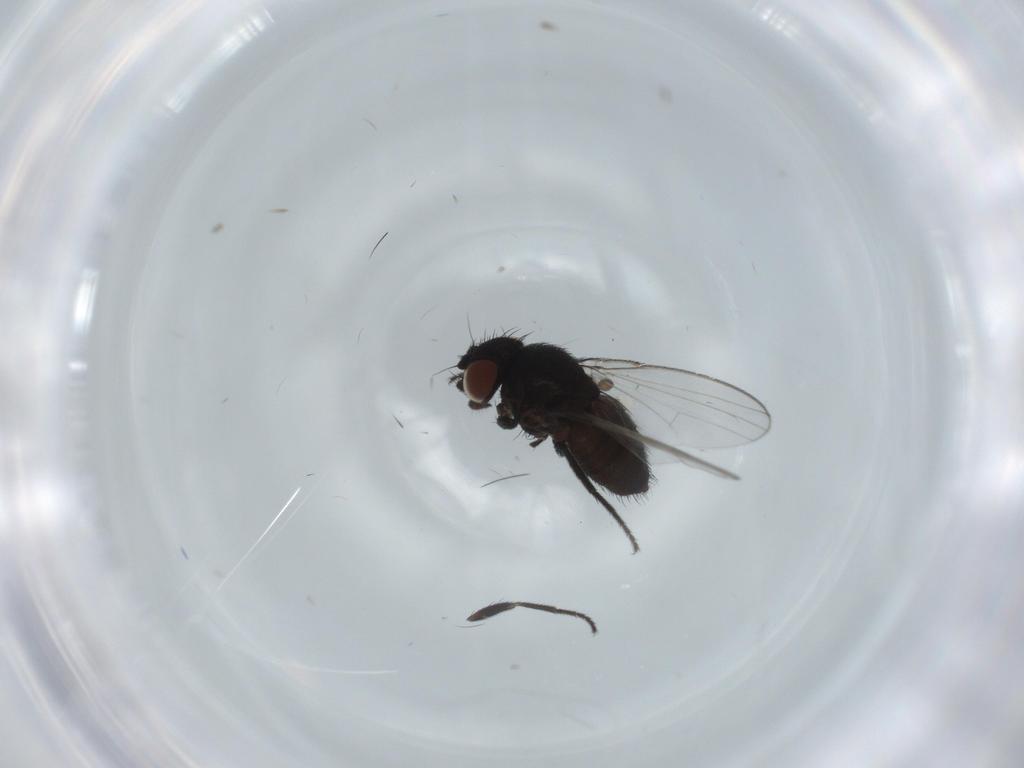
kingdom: Animalia
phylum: Arthropoda
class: Insecta
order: Diptera
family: Milichiidae
